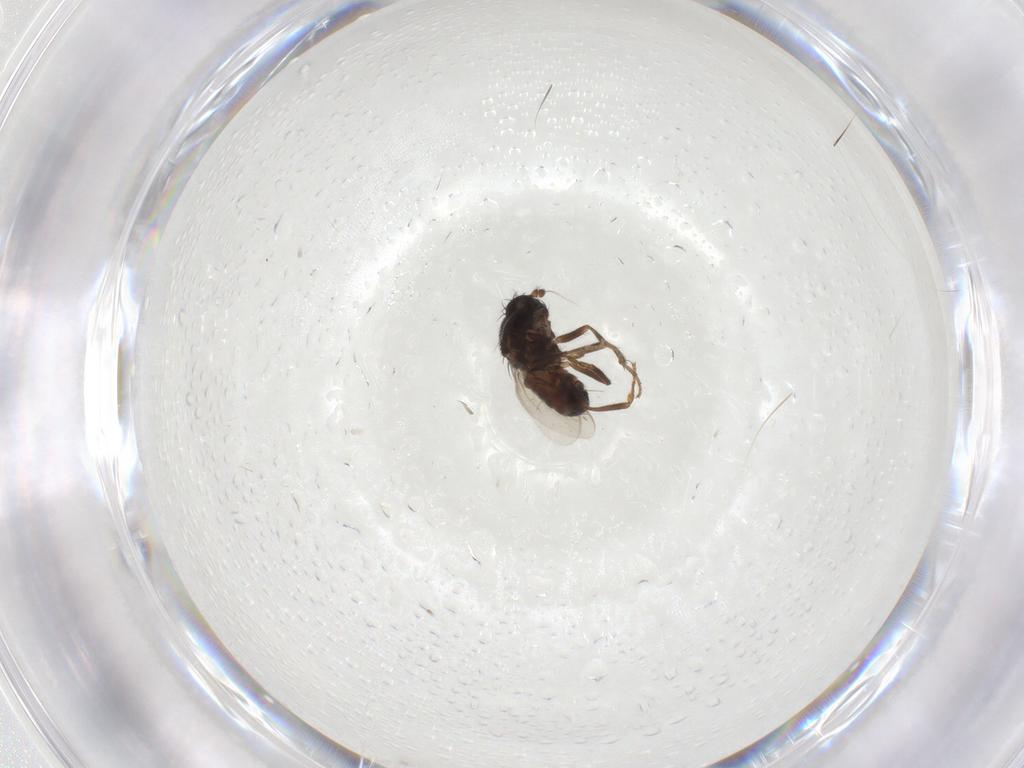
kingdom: Animalia
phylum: Arthropoda
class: Insecta
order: Diptera
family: Sphaeroceridae
